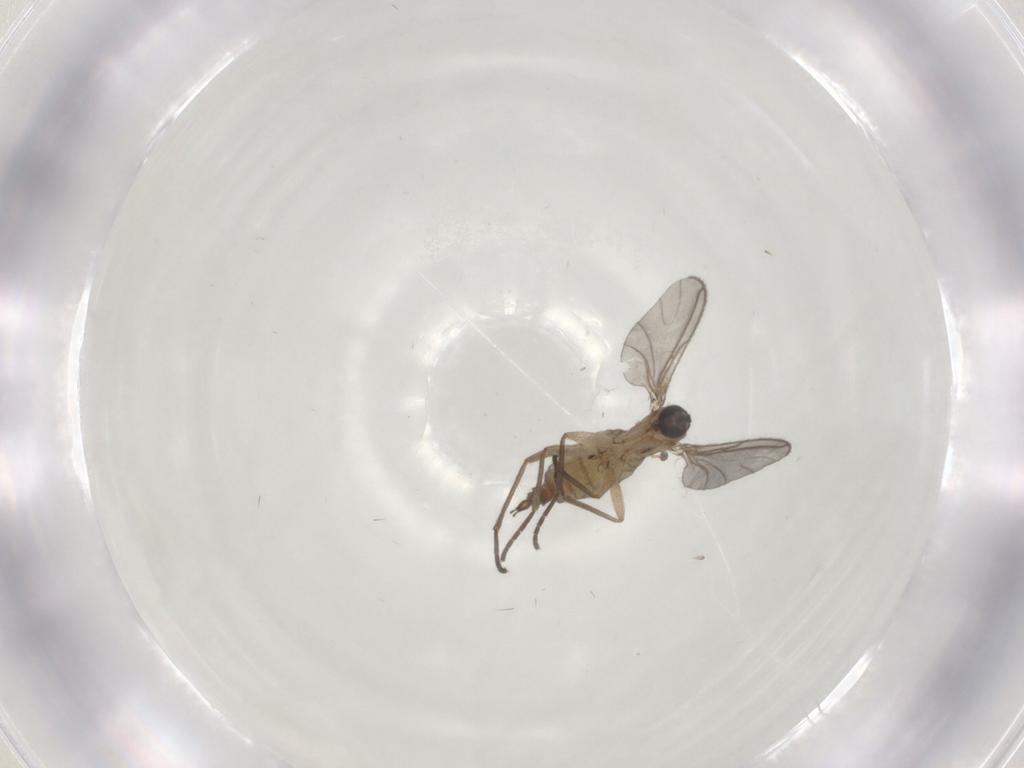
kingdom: Animalia
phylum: Arthropoda
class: Insecta
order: Diptera
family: Sciaridae
